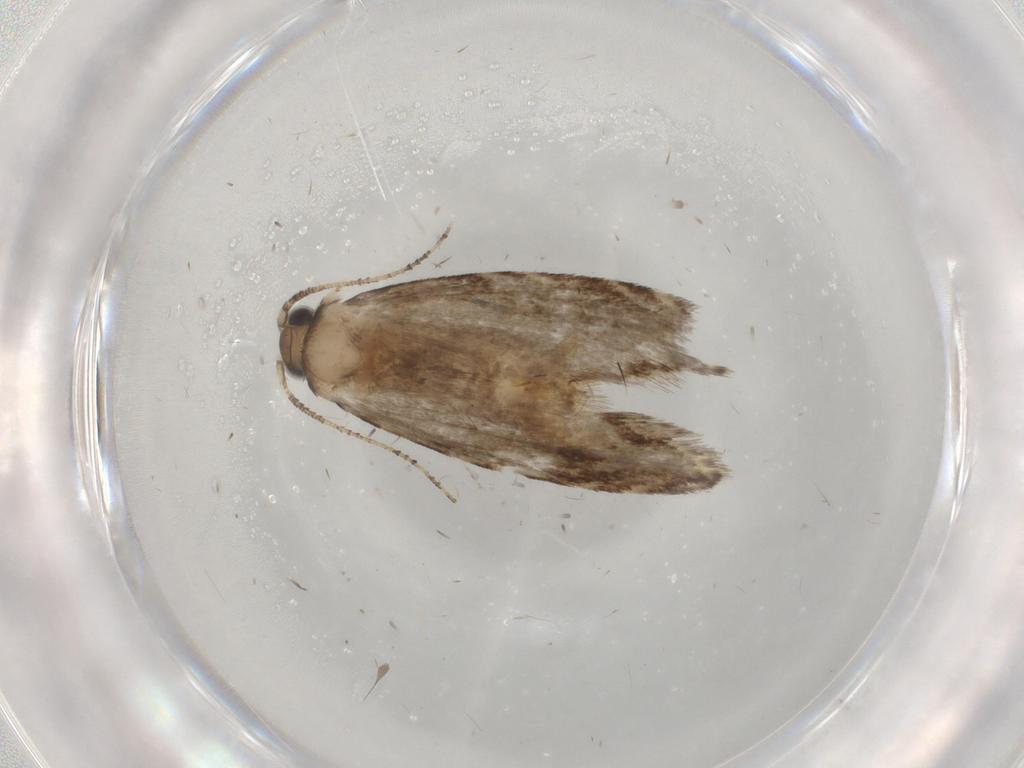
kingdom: Animalia
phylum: Arthropoda
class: Insecta
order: Lepidoptera
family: Tineidae
